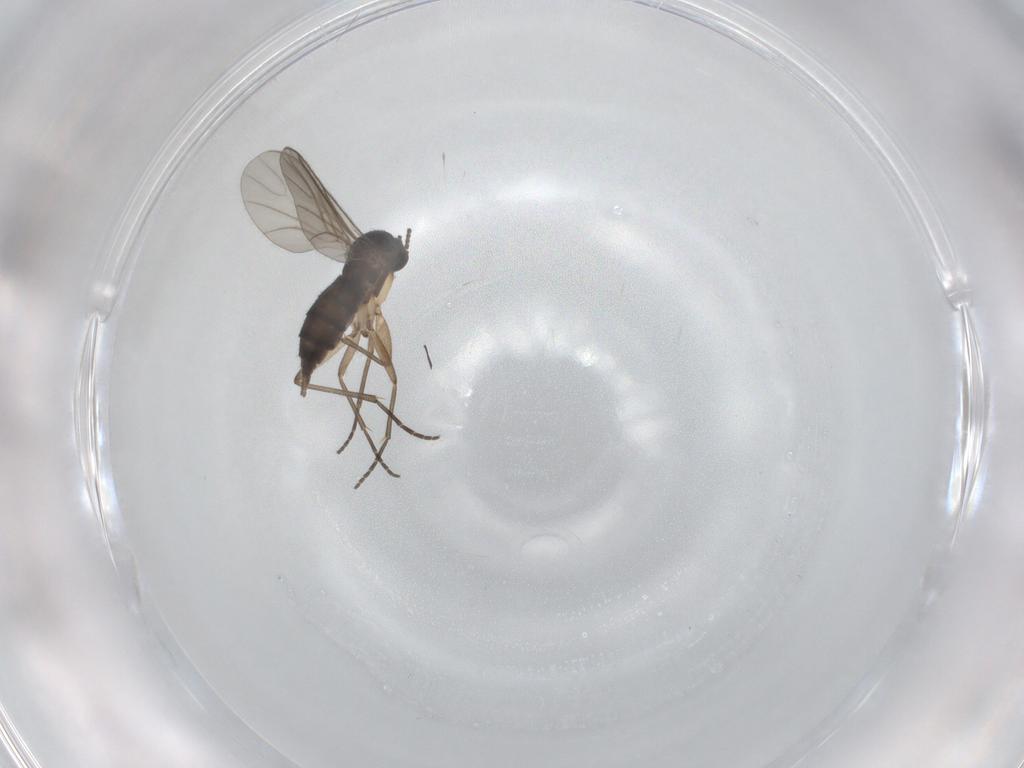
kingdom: Animalia
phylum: Arthropoda
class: Insecta
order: Diptera
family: Chironomidae
